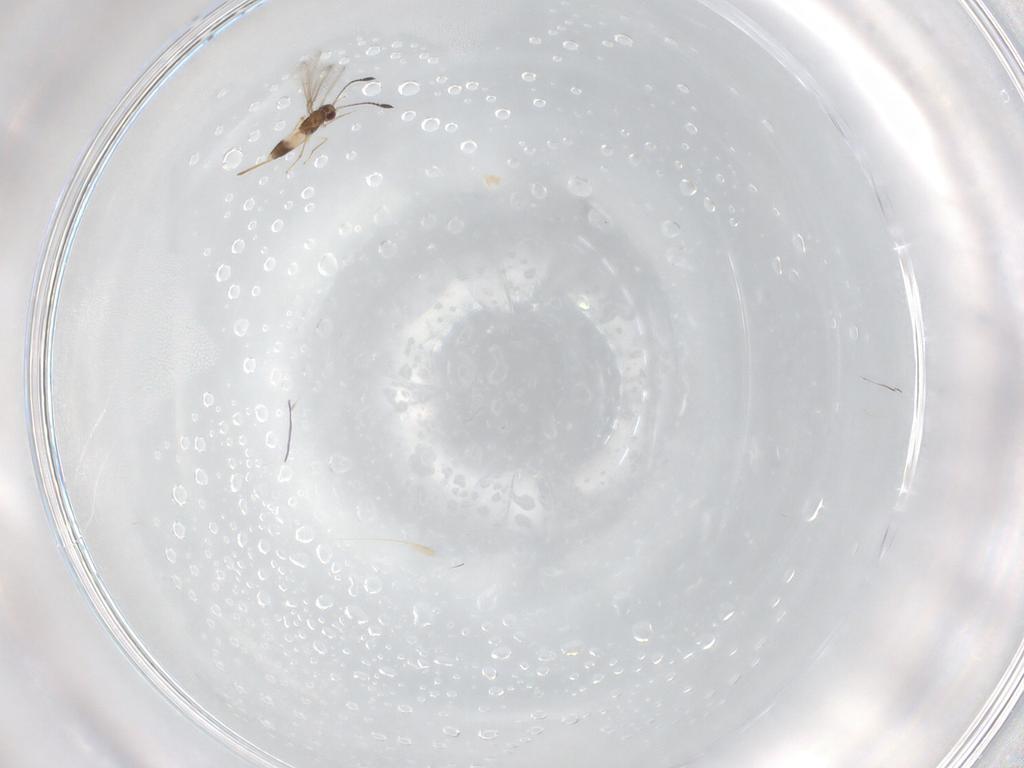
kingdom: Animalia
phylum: Arthropoda
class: Insecta
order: Hymenoptera
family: Mymaridae
